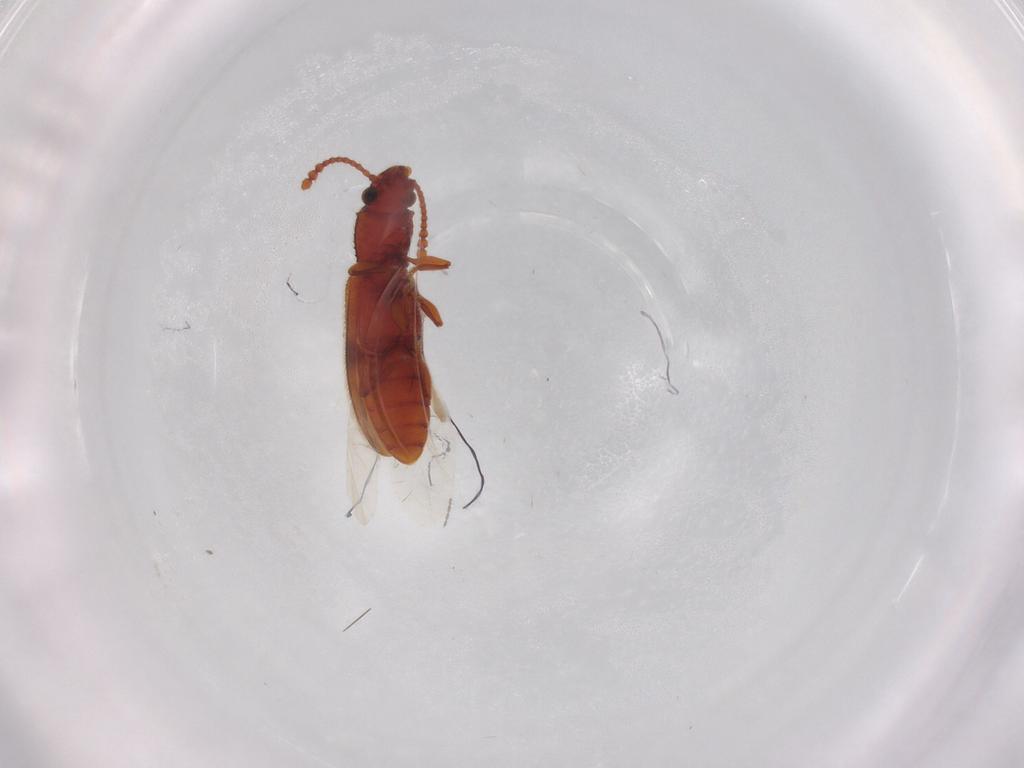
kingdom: Animalia
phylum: Arthropoda
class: Insecta
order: Coleoptera
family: Silvanidae
